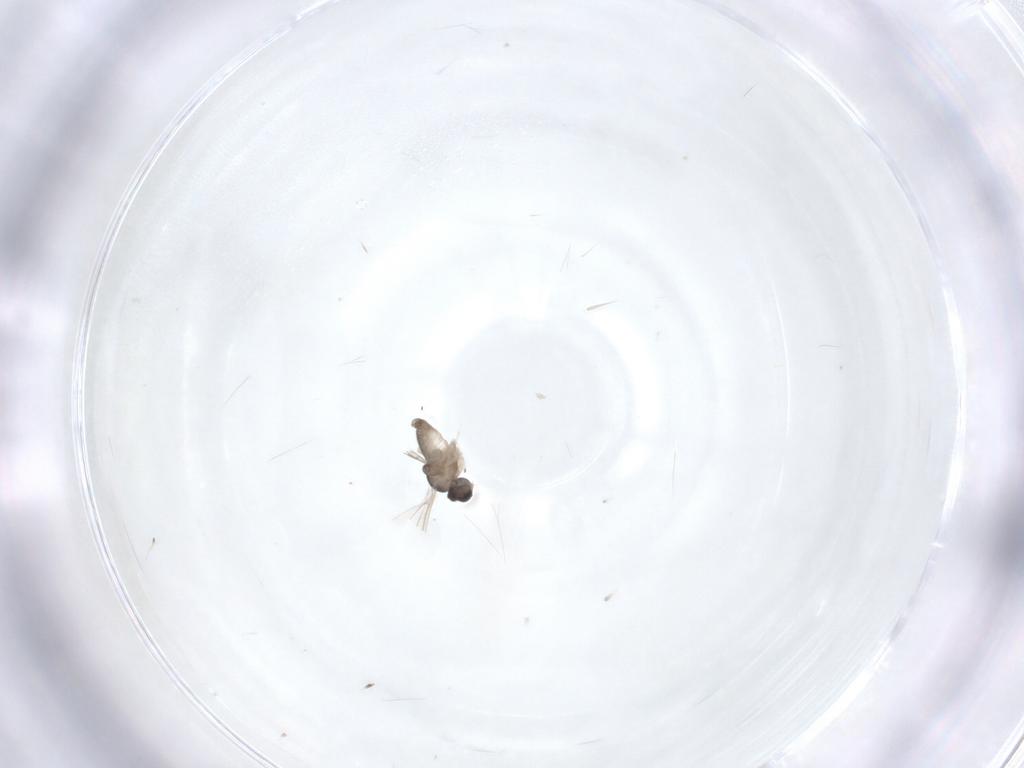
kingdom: Animalia
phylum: Arthropoda
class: Insecta
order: Diptera
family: Cecidomyiidae
